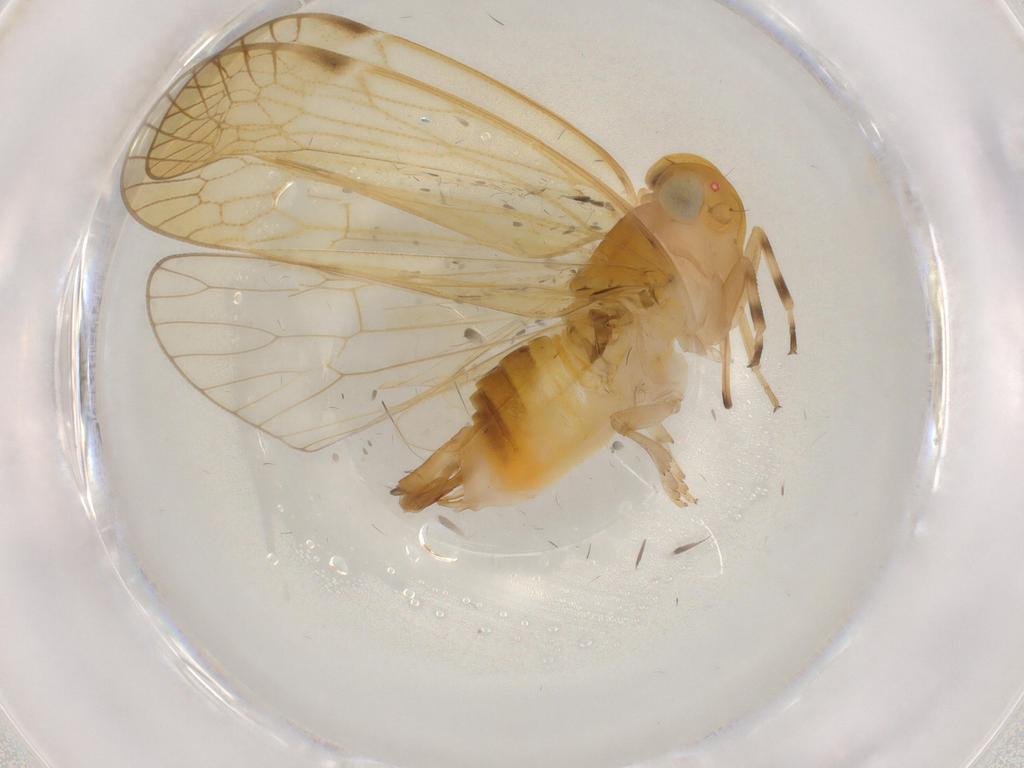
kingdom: Animalia
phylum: Arthropoda
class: Insecta
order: Hemiptera
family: Cixiidae
